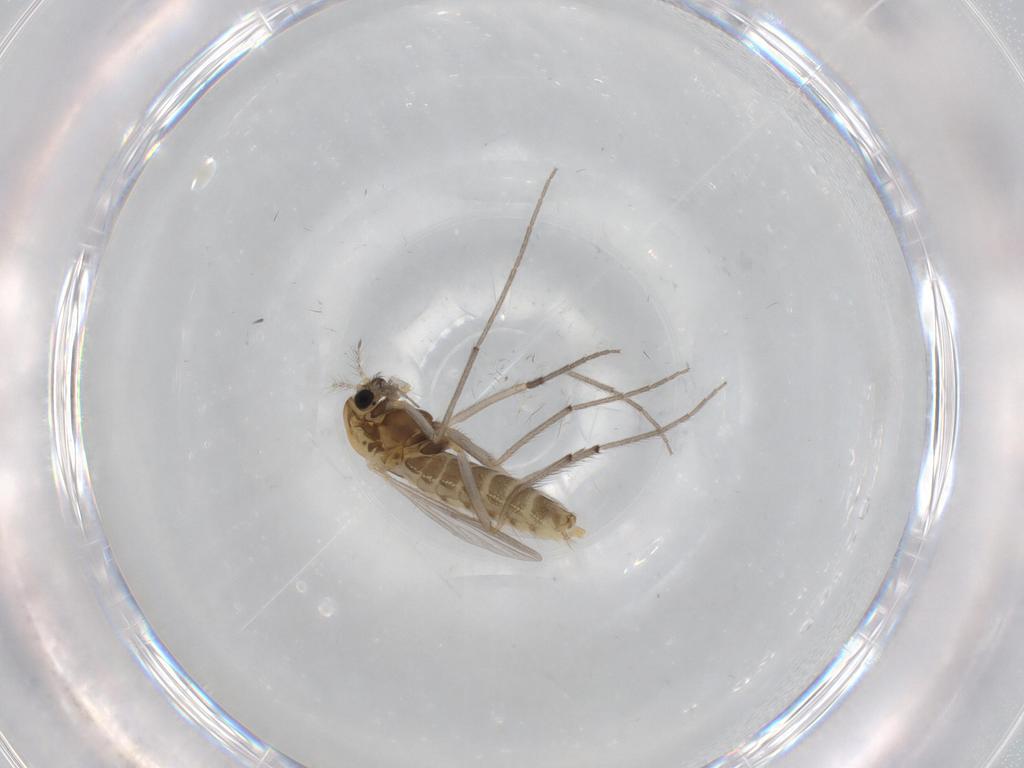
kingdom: Animalia
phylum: Arthropoda
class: Insecta
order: Diptera
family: Chironomidae
